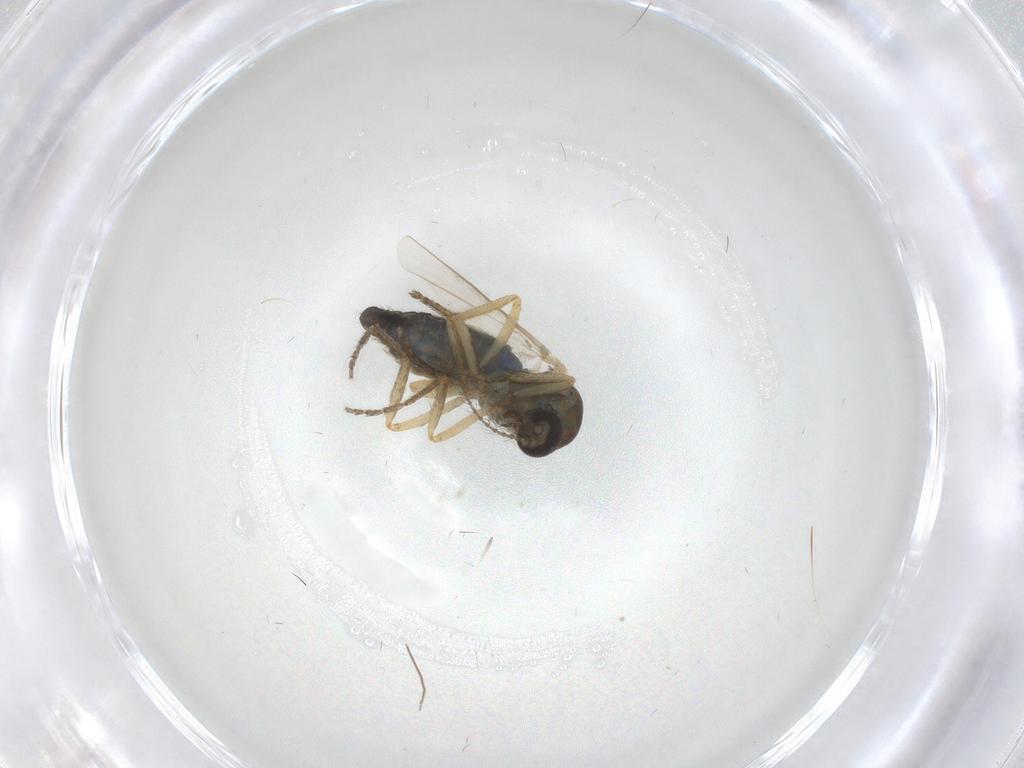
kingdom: Animalia
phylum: Arthropoda
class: Insecta
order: Diptera
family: Ceratopogonidae
